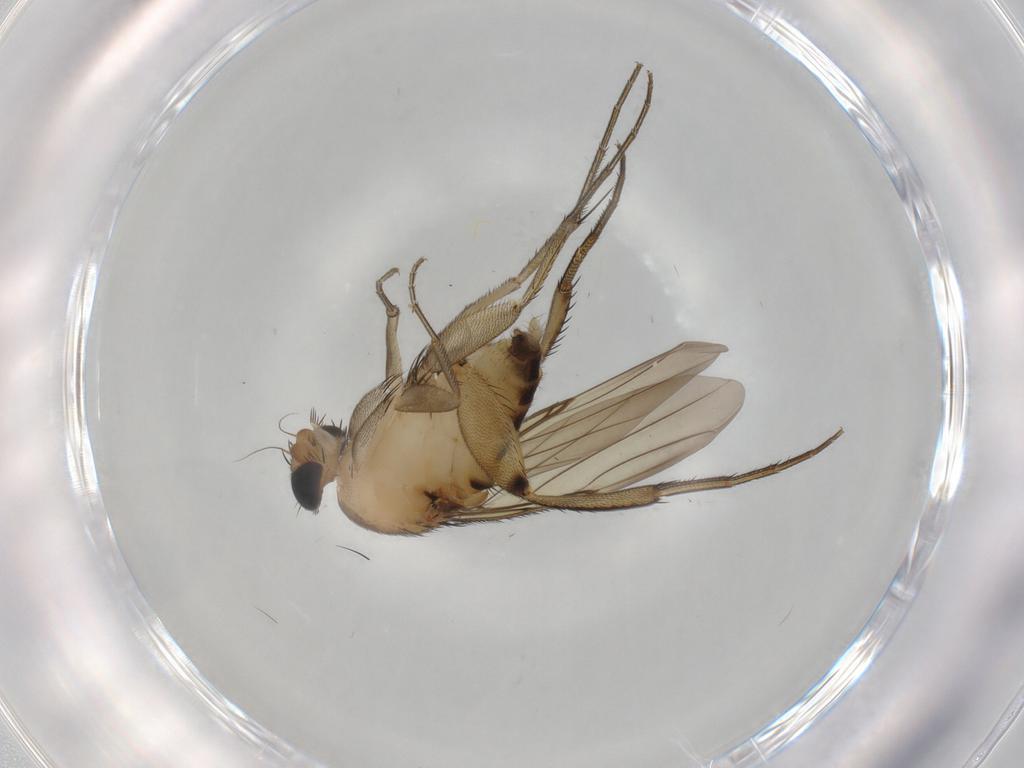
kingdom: Animalia
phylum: Arthropoda
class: Insecta
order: Diptera
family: Phoridae
